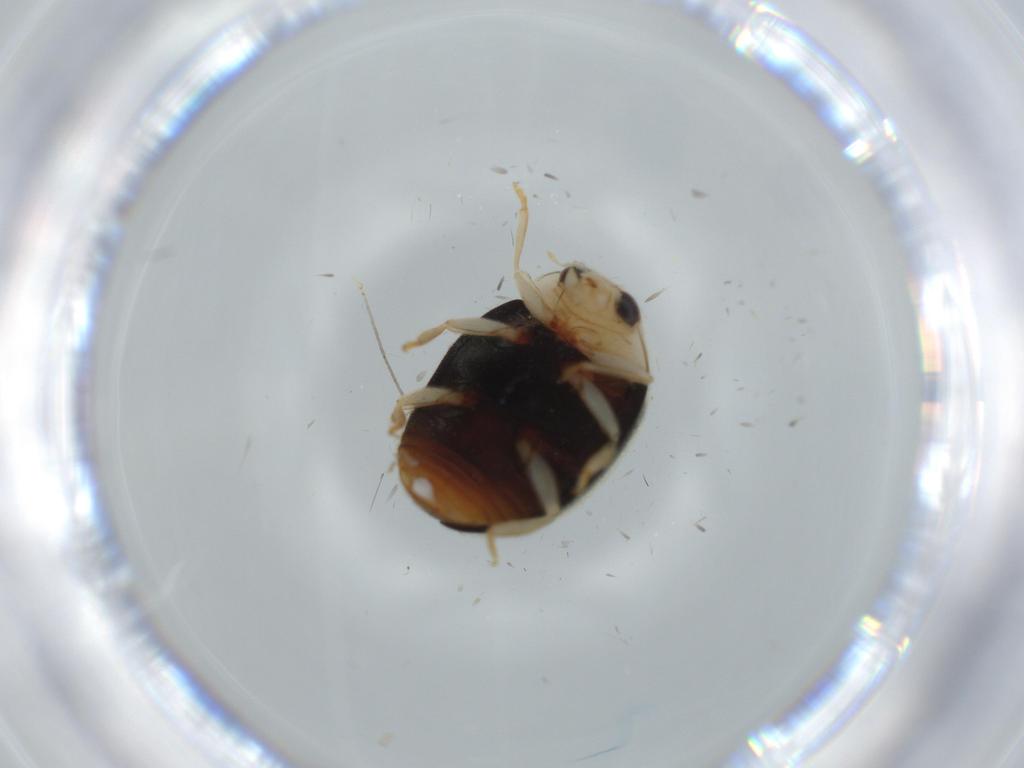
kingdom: Animalia
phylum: Arthropoda
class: Insecta
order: Coleoptera
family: Coccinellidae
